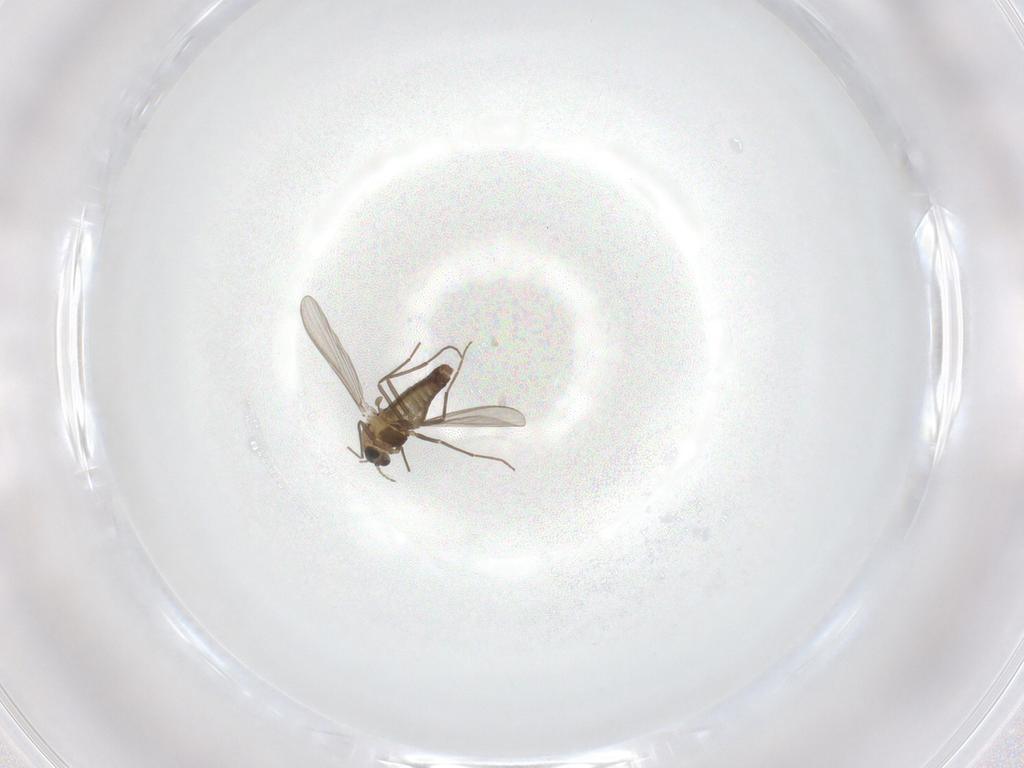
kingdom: Animalia
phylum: Arthropoda
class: Insecta
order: Diptera
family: Chironomidae
